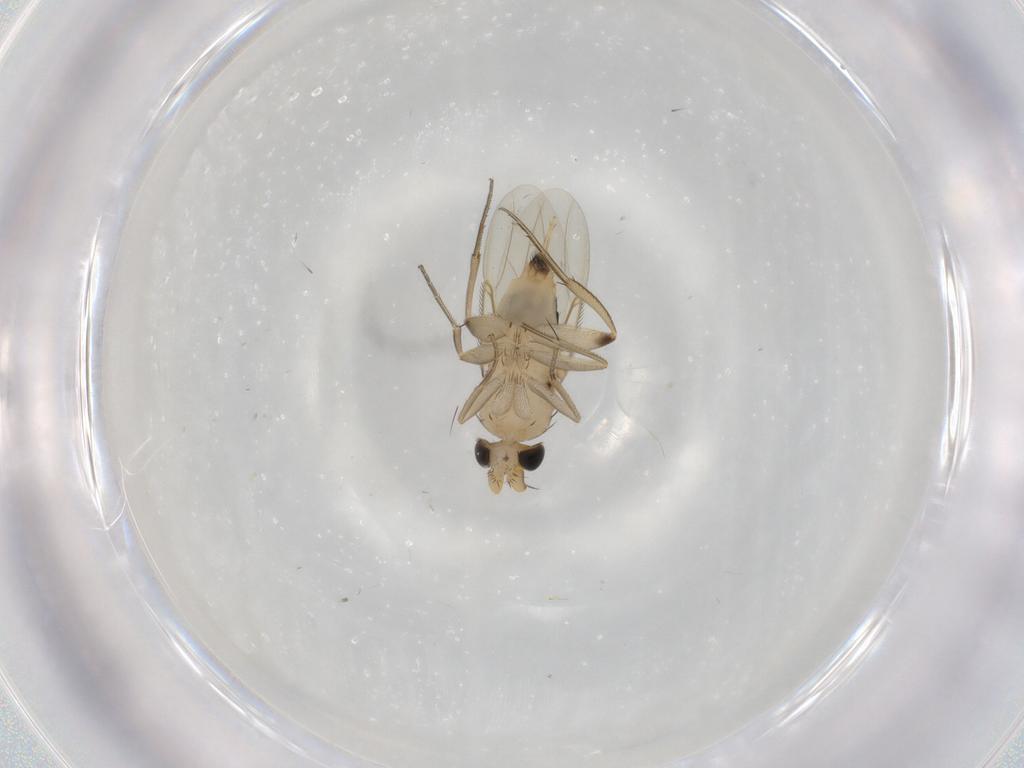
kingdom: Animalia
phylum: Arthropoda
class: Insecta
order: Diptera
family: Phoridae
